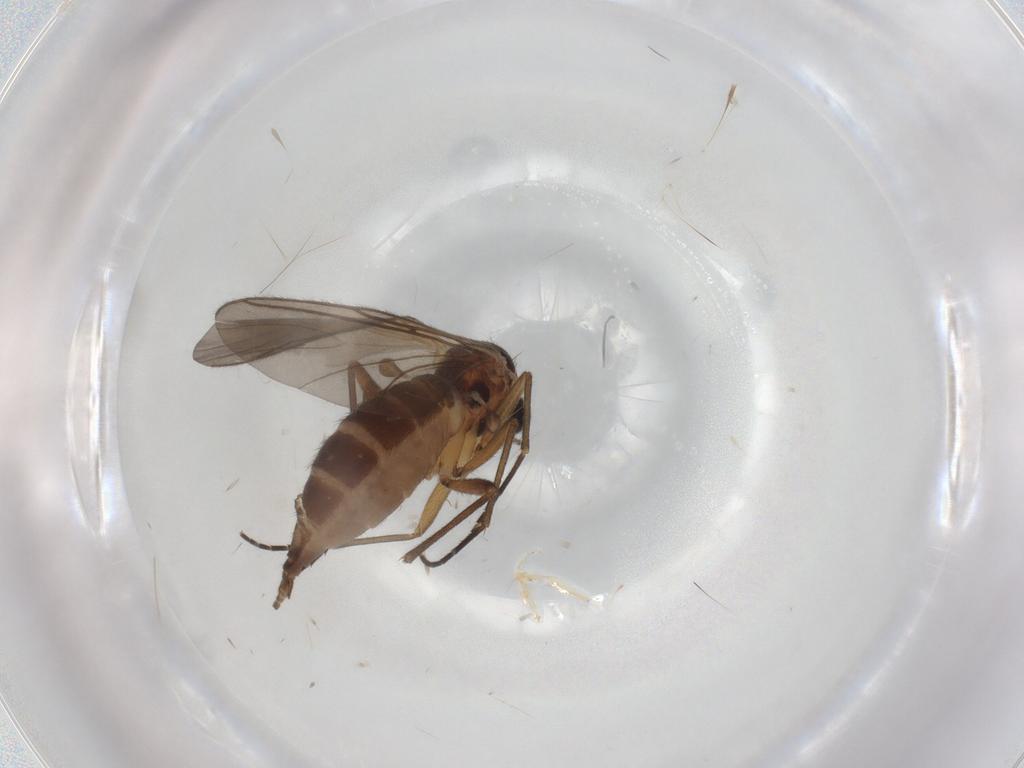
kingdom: Animalia
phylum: Arthropoda
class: Insecta
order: Diptera
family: Sciaridae
